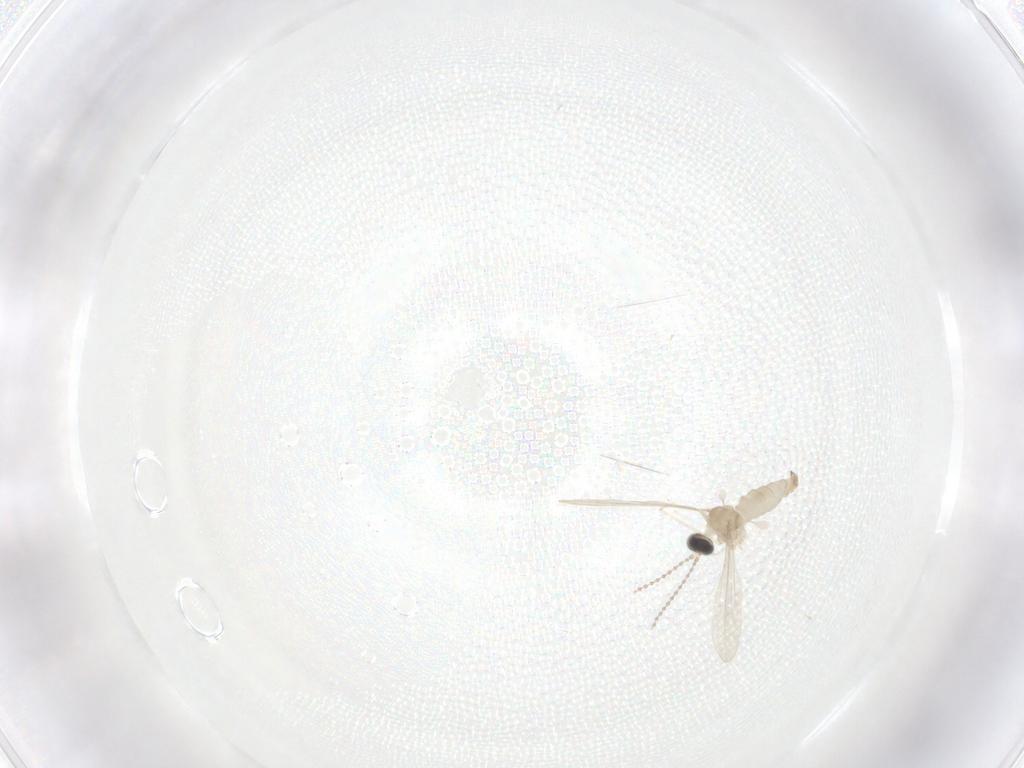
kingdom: Animalia
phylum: Arthropoda
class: Insecta
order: Diptera
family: Cecidomyiidae
